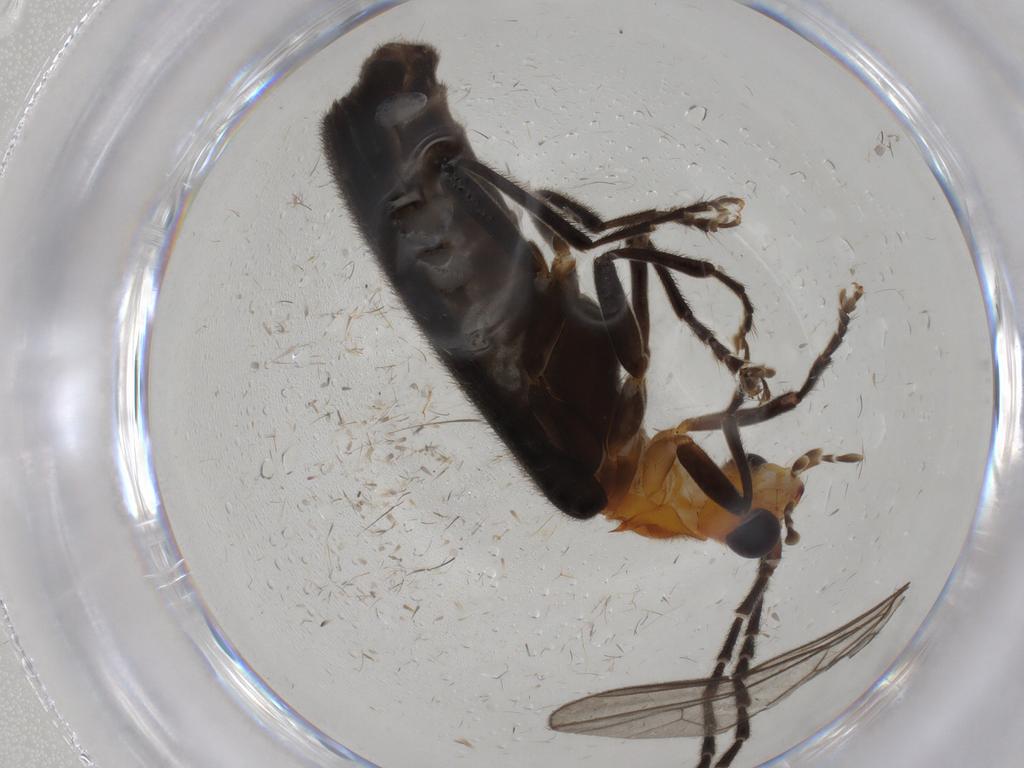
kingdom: Animalia
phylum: Arthropoda
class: Insecta
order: Coleoptera
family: Cantharidae
